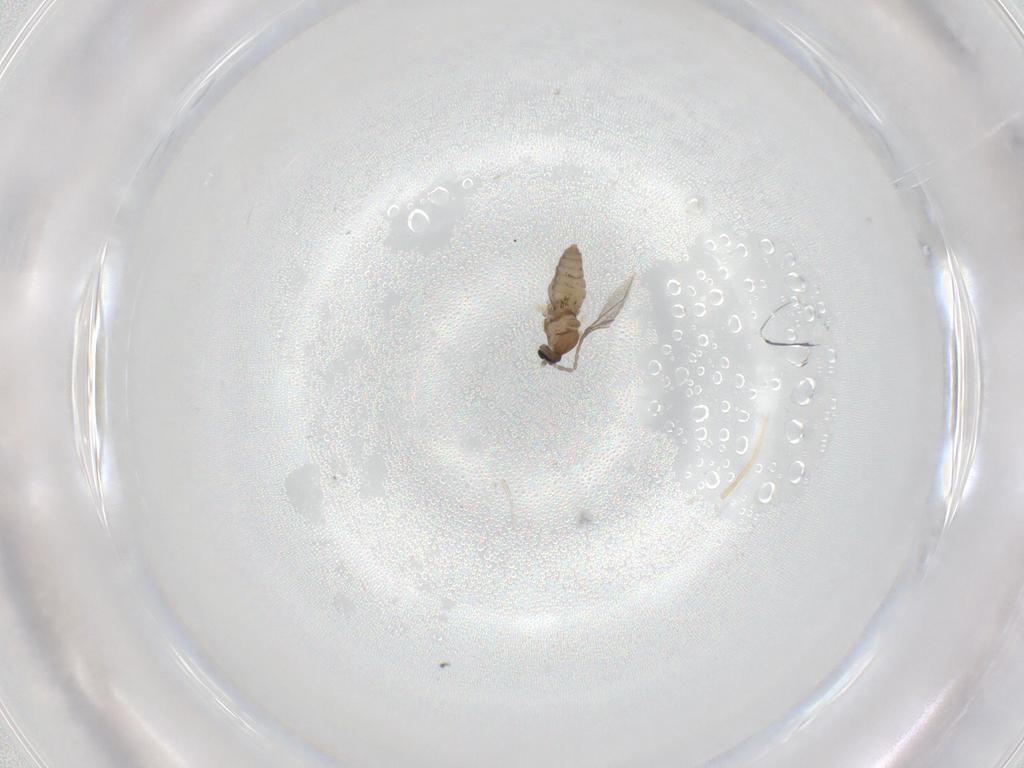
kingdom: Animalia
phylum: Arthropoda
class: Insecta
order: Diptera
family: Cecidomyiidae
